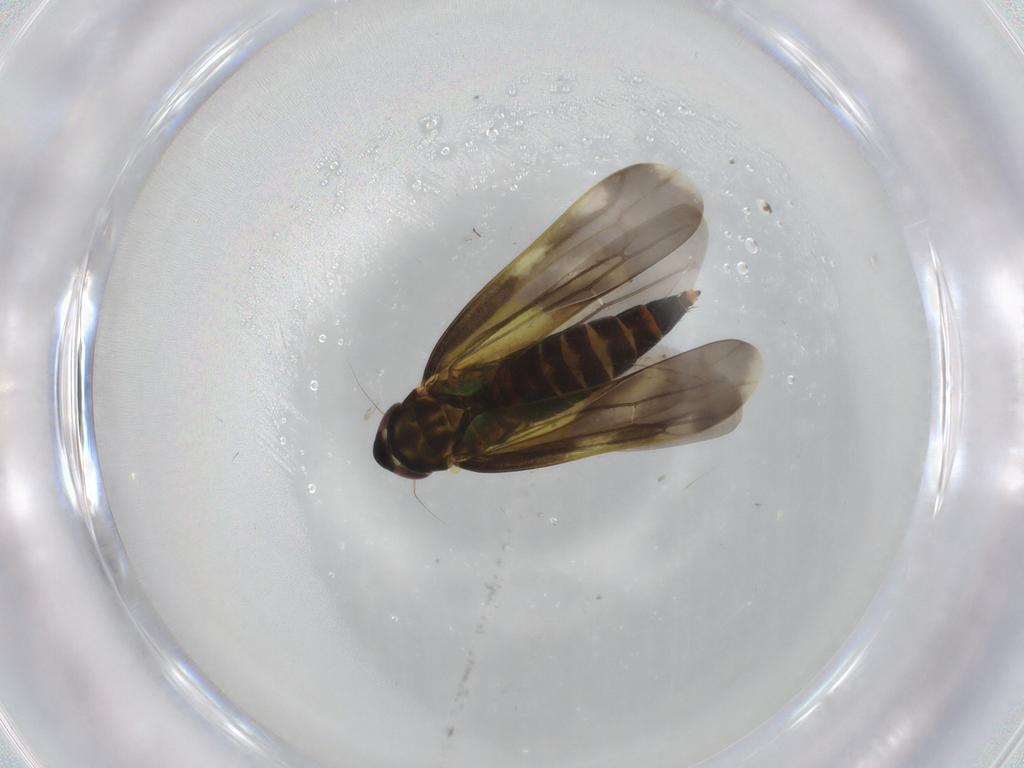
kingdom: Animalia
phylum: Arthropoda
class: Insecta
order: Hemiptera
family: Cicadellidae
